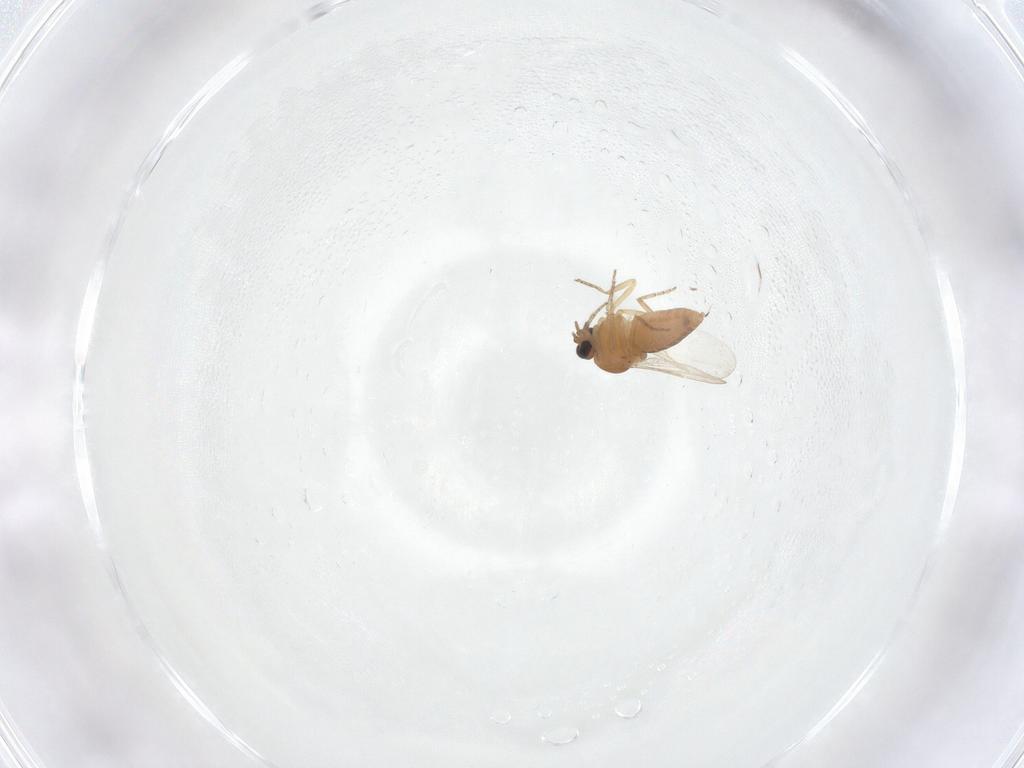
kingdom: Animalia
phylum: Arthropoda
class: Insecta
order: Diptera
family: Ceratopogonidae
